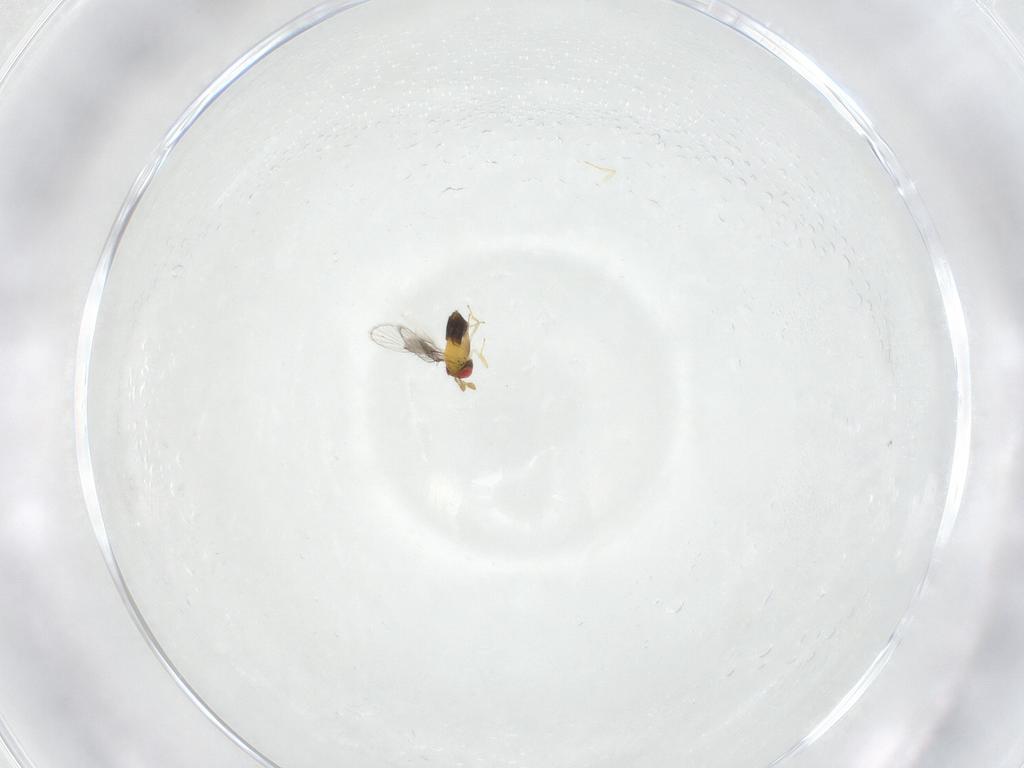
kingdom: Animalia
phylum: Arthropoda
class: Insecta
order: Hymenoptera
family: Trichogrammatidae
